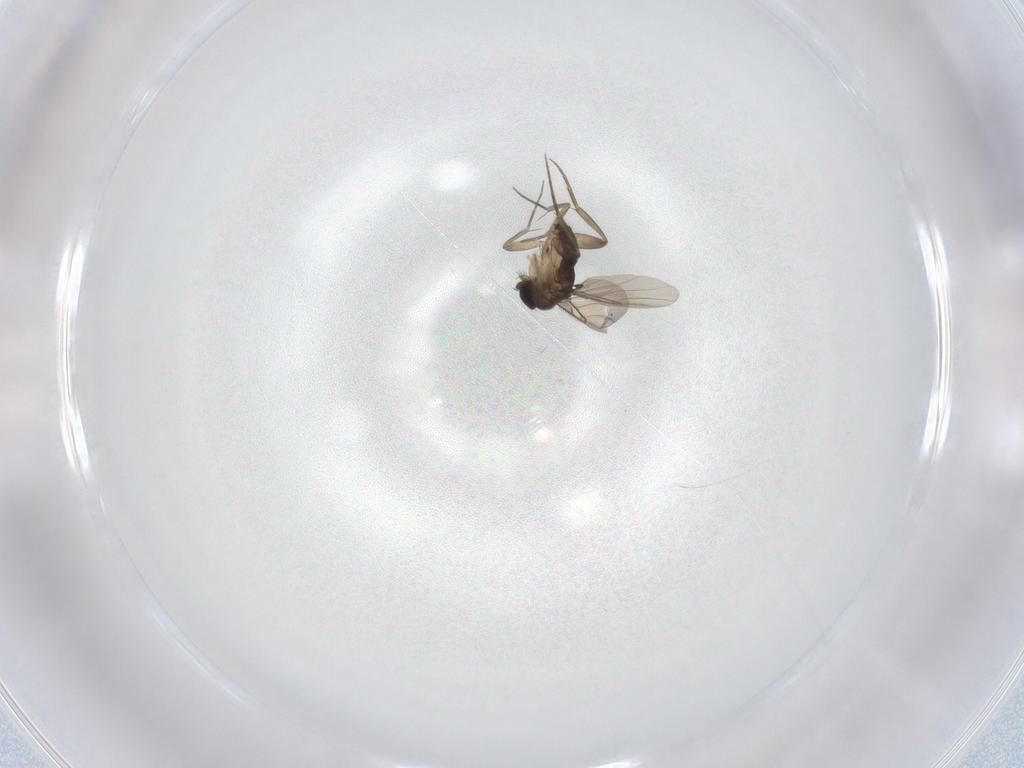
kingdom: Animalia
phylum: Arthropoda
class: Insecta
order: Diptera
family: Phoridae
